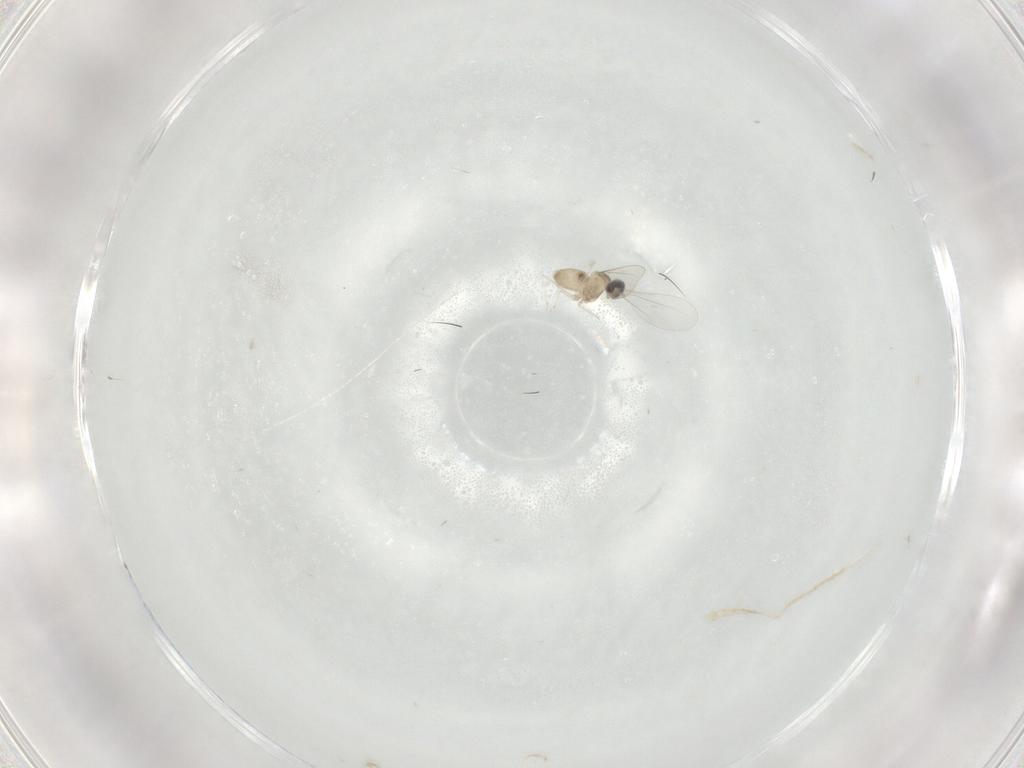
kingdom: Animalia
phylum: Arthropoda
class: Insecta
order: Diptera
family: Cecidomyiidae
